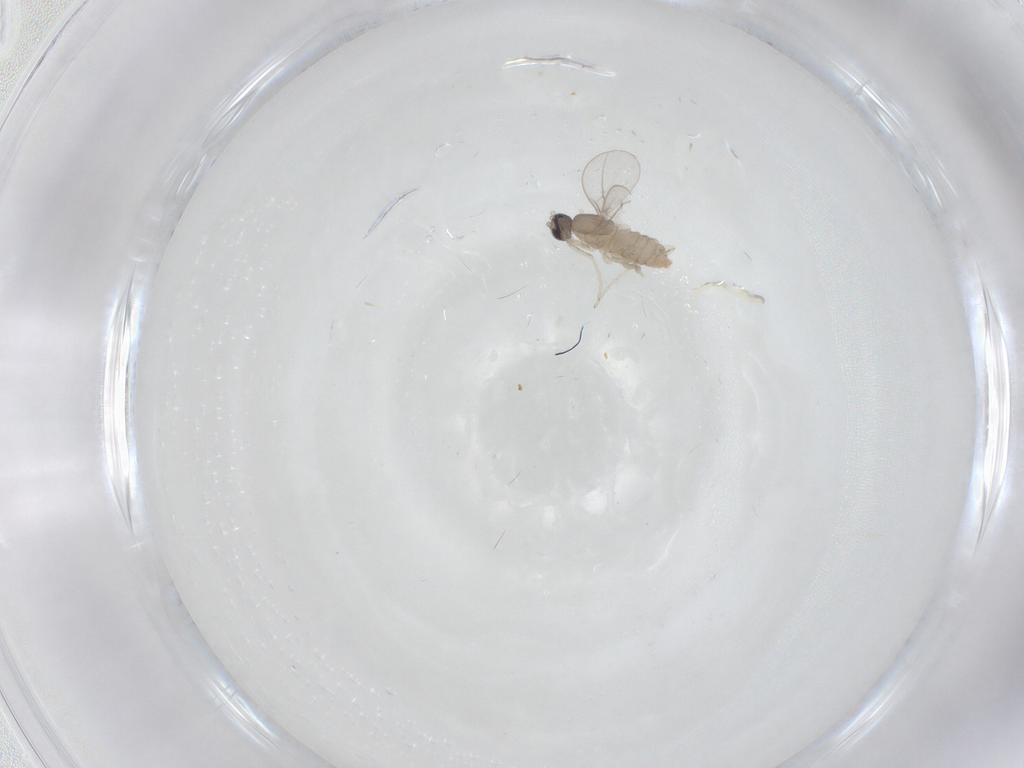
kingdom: Animalia
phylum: Arthropoda
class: Insecta
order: Diptera
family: Cecidomyiidae
